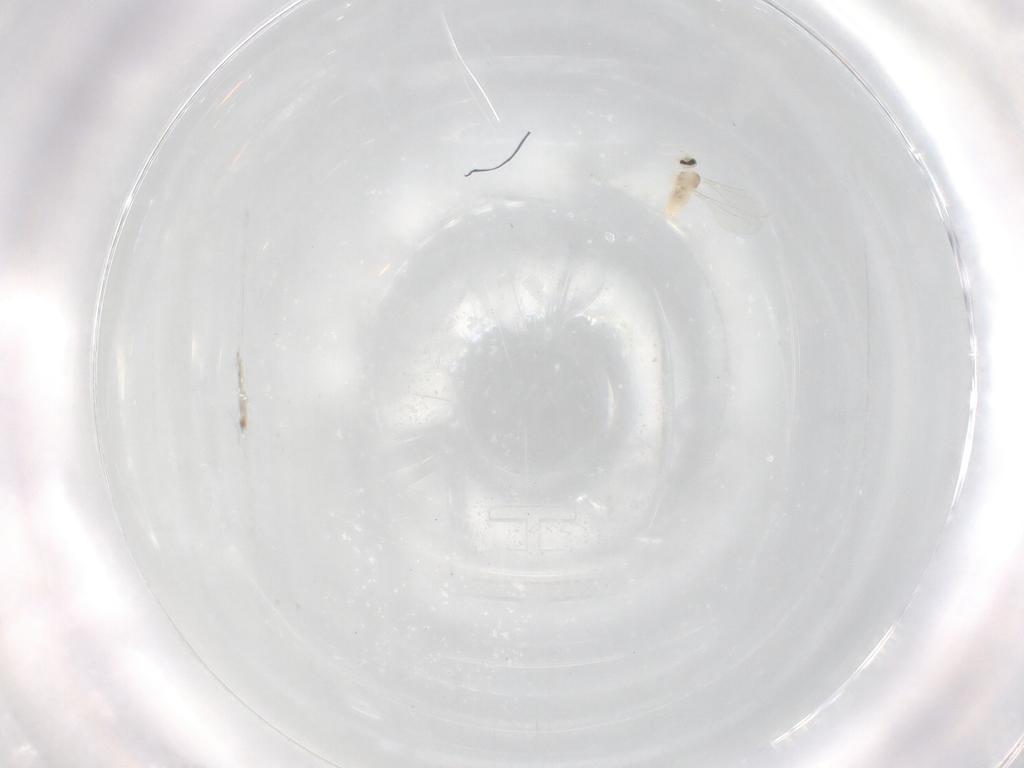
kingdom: Animalia
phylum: Arthropoda
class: Insecta
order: Diptera
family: Cecidomyiidae
